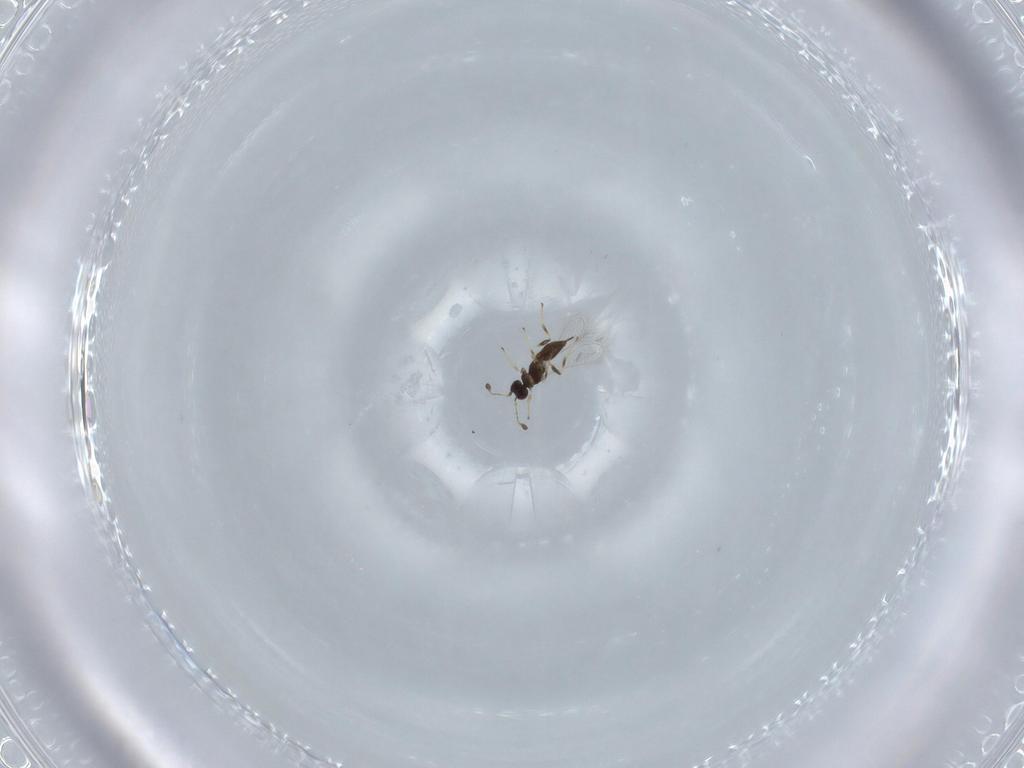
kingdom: Animalia
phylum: Arthropoda
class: Insecta
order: Hymenoptera
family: Mymaridae
